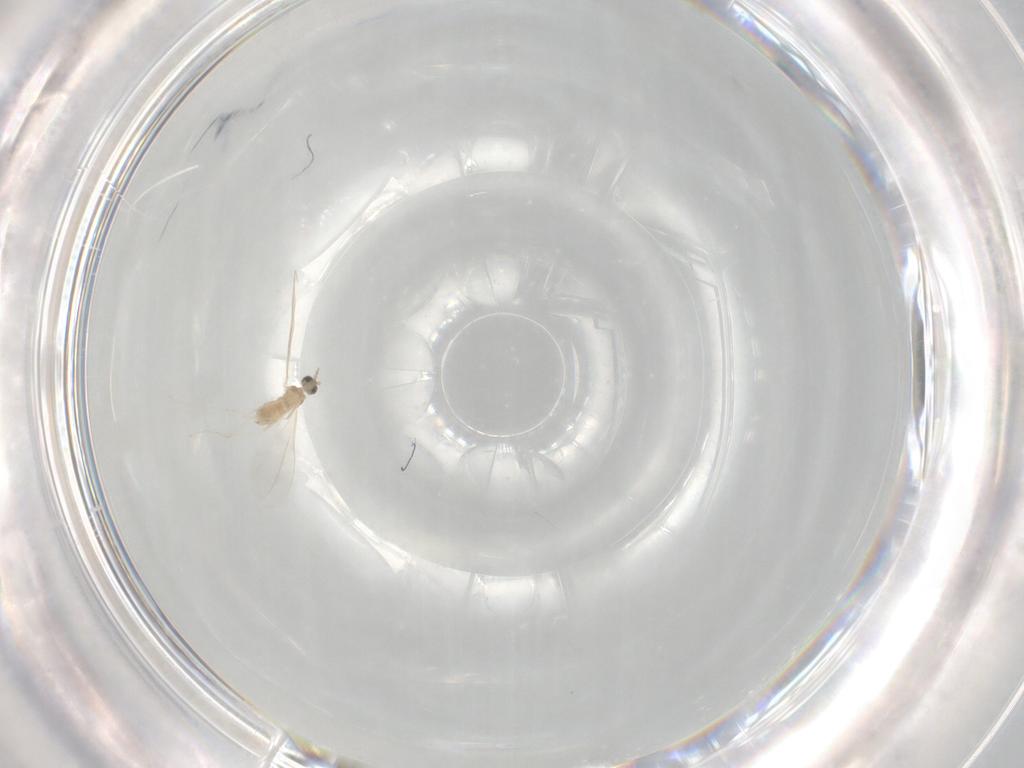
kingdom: Animalia
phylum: Arthropoda
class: Insecta
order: Diptera
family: Cecidomyiidae
